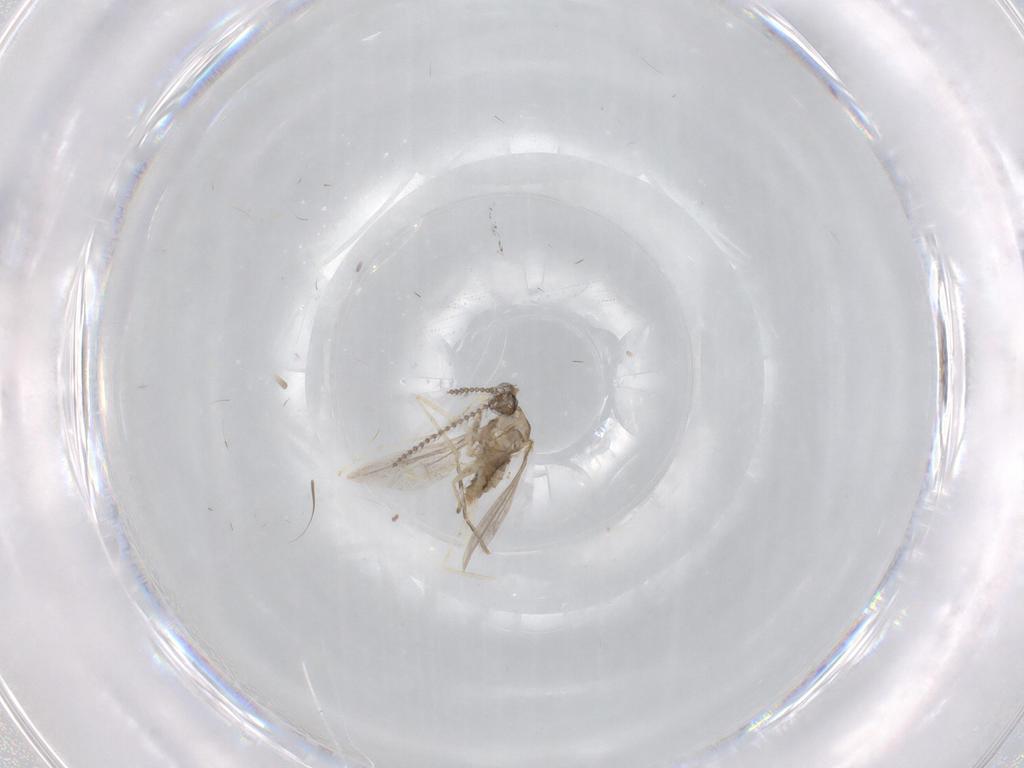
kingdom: Animalia
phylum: Arthropoda
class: Insecta
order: Diptera
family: Cecidomyiidae
